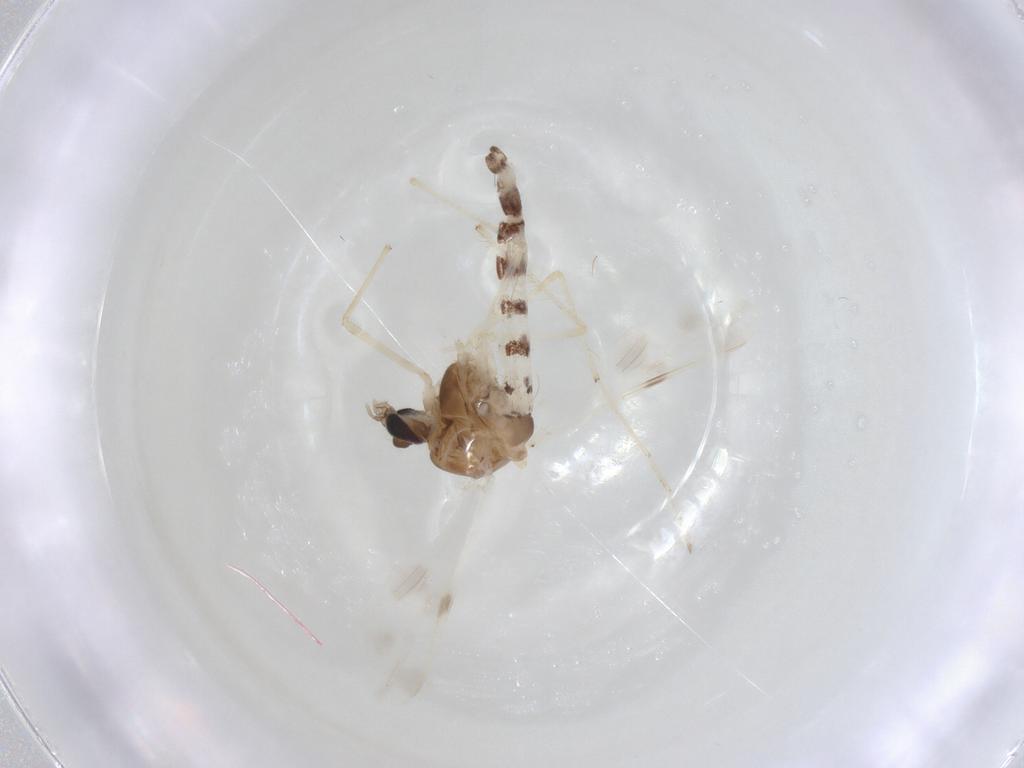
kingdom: Animalia
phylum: Arthropoda
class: Insecta
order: Diptera
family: Chironomidae
